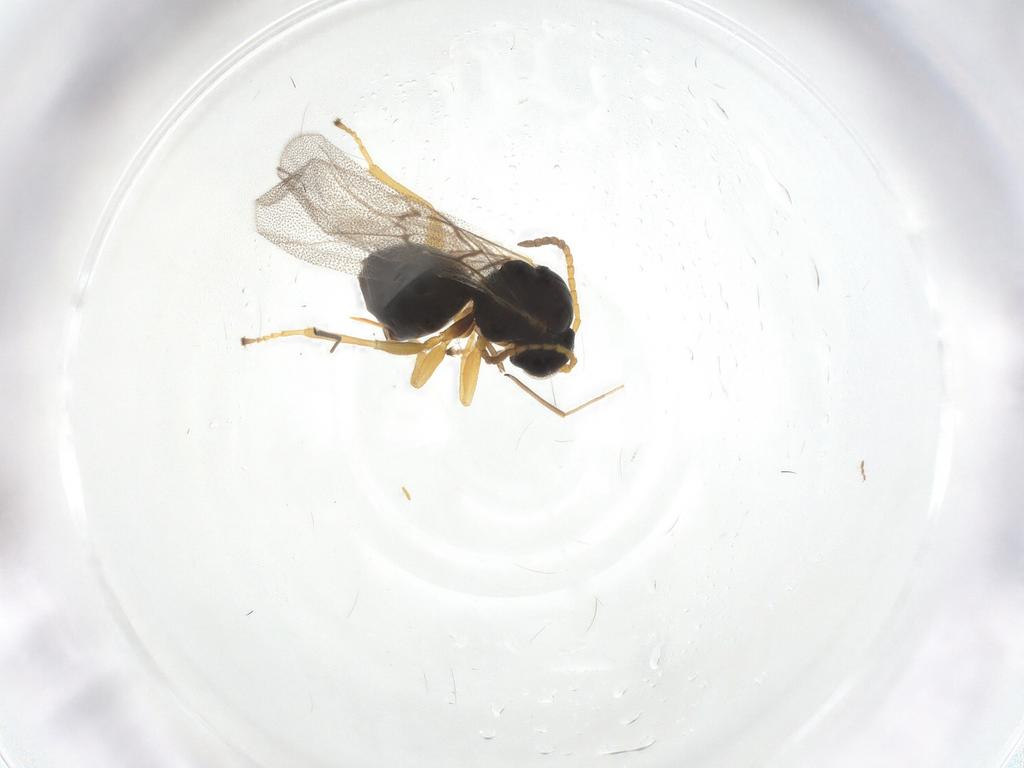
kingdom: Animalia
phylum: Arthropoda
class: Insecta
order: Hymenoptera
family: Cynipidae
